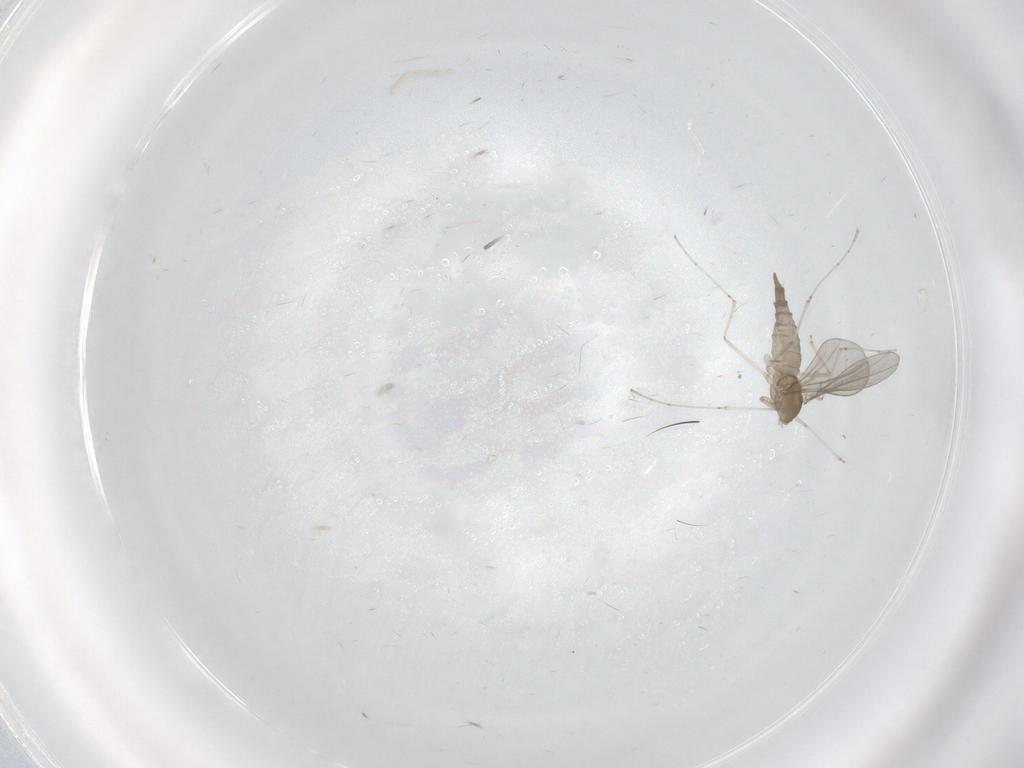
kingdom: Animalia
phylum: Arthropoda
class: Insecta
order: Diptera
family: Cecidomyiidae
